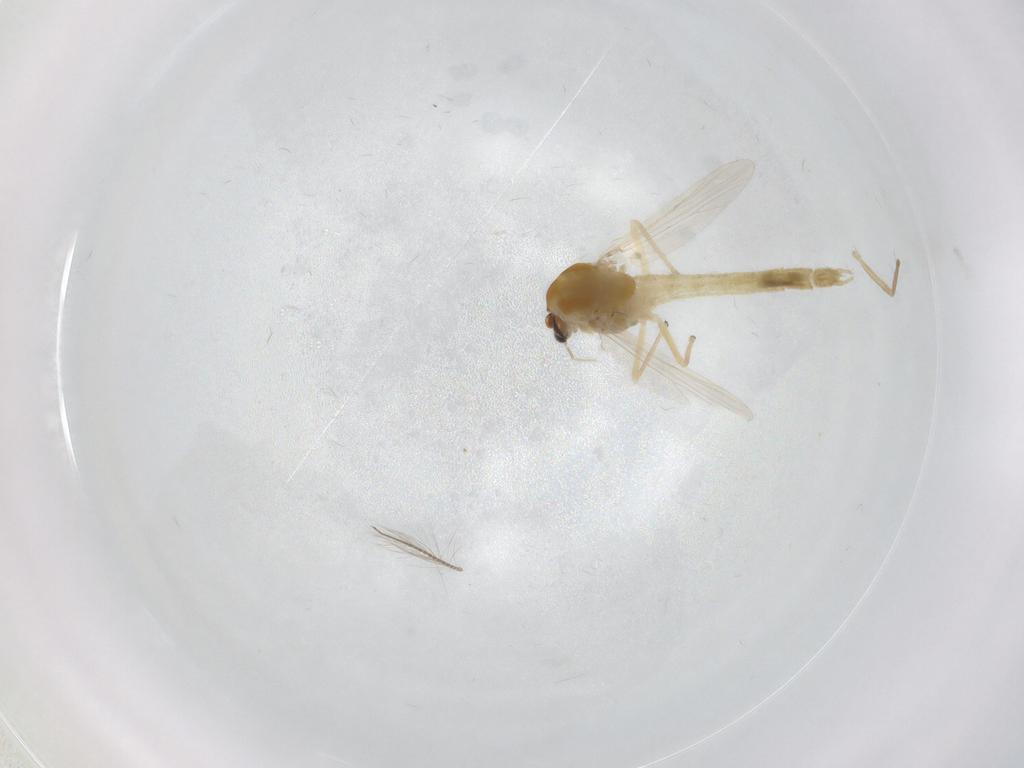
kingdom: Animalia
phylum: Arthropoda
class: Insecta
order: Diptera
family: Chironomidae
